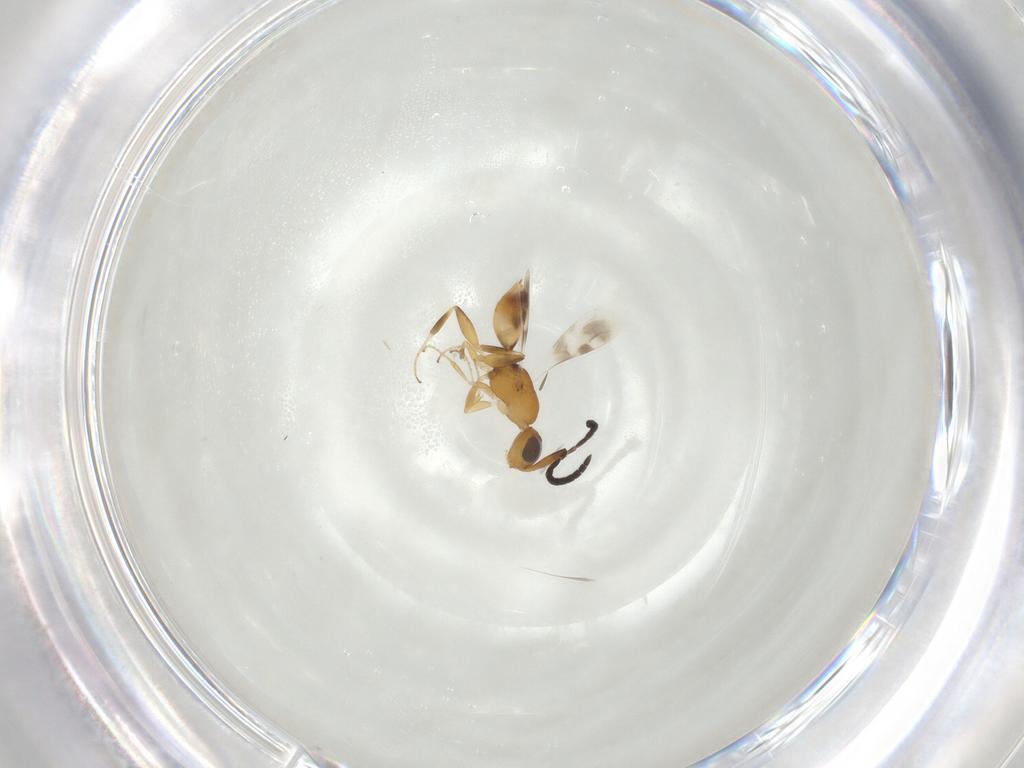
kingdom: Animalia
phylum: Arthropoda
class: Insecta
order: Hymenoptera
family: Megaspilidae
